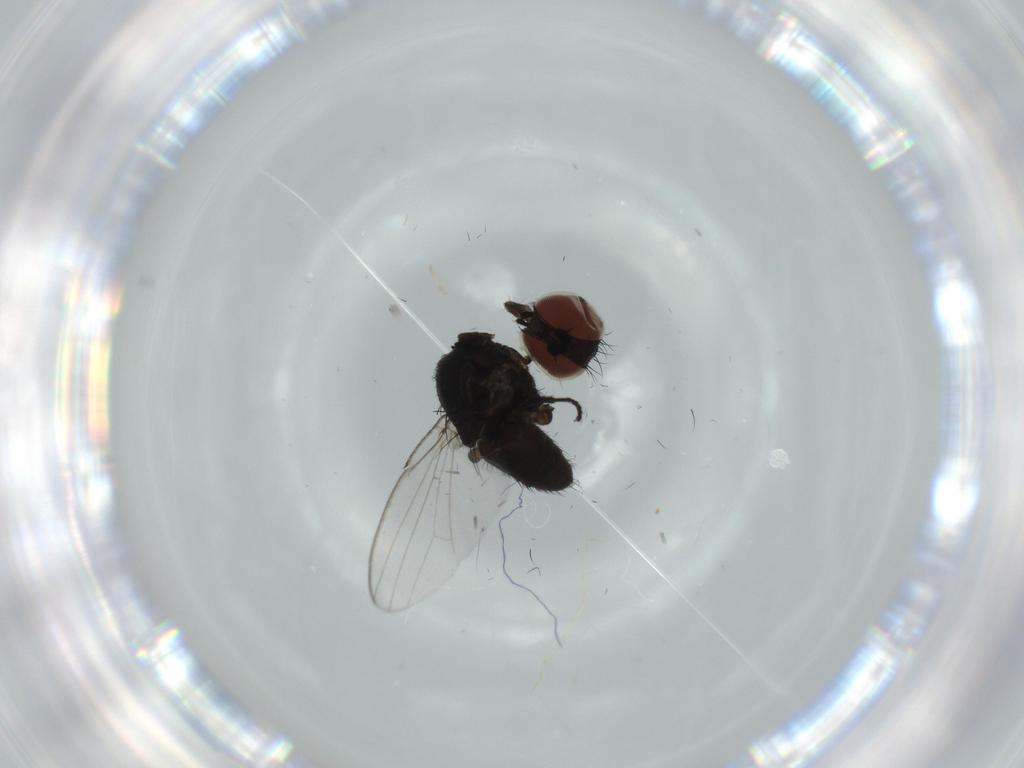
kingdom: Animalia
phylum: Arthropoda
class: Insecta
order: Diptera
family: Milichiidae
